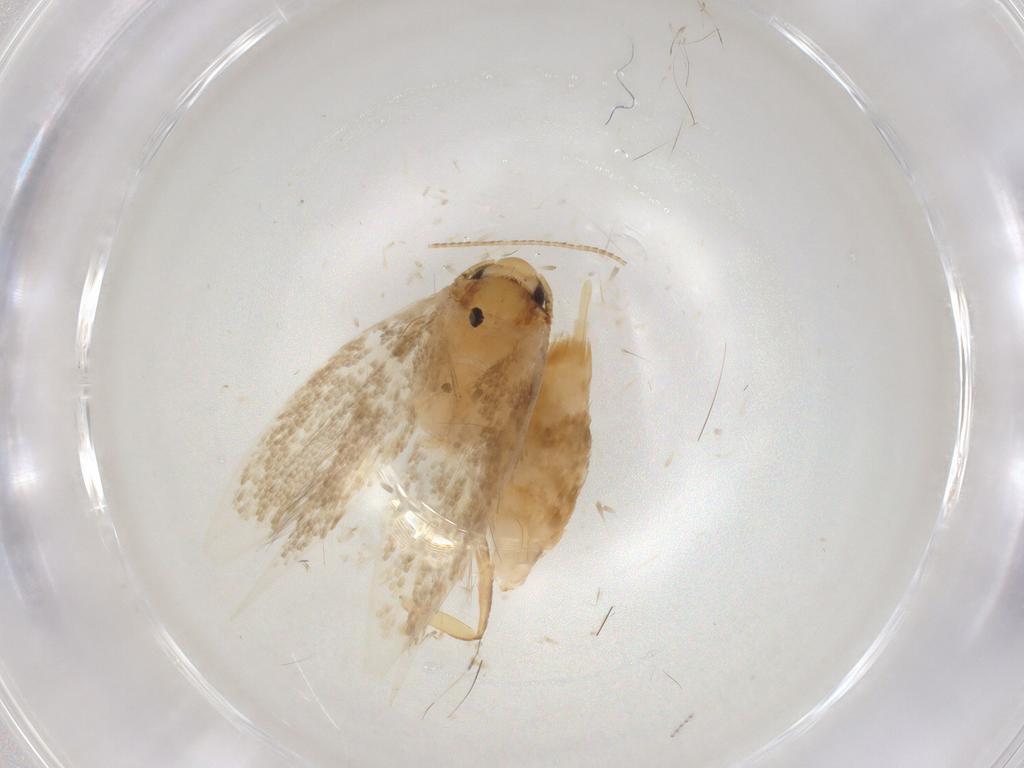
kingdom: Animalia
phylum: Arthropoda
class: Insecta
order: Lepidoptera
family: Tineidae
